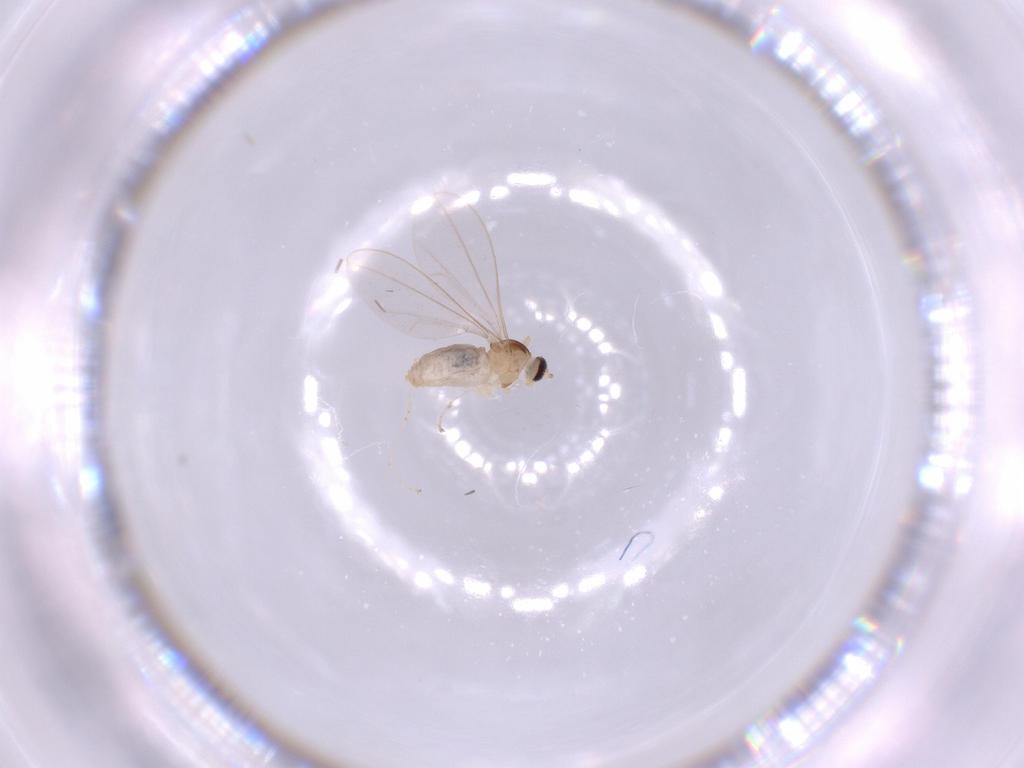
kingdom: Animalia
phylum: Arthropoda
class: Insecta
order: Diptera
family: Cecidomyiidae
